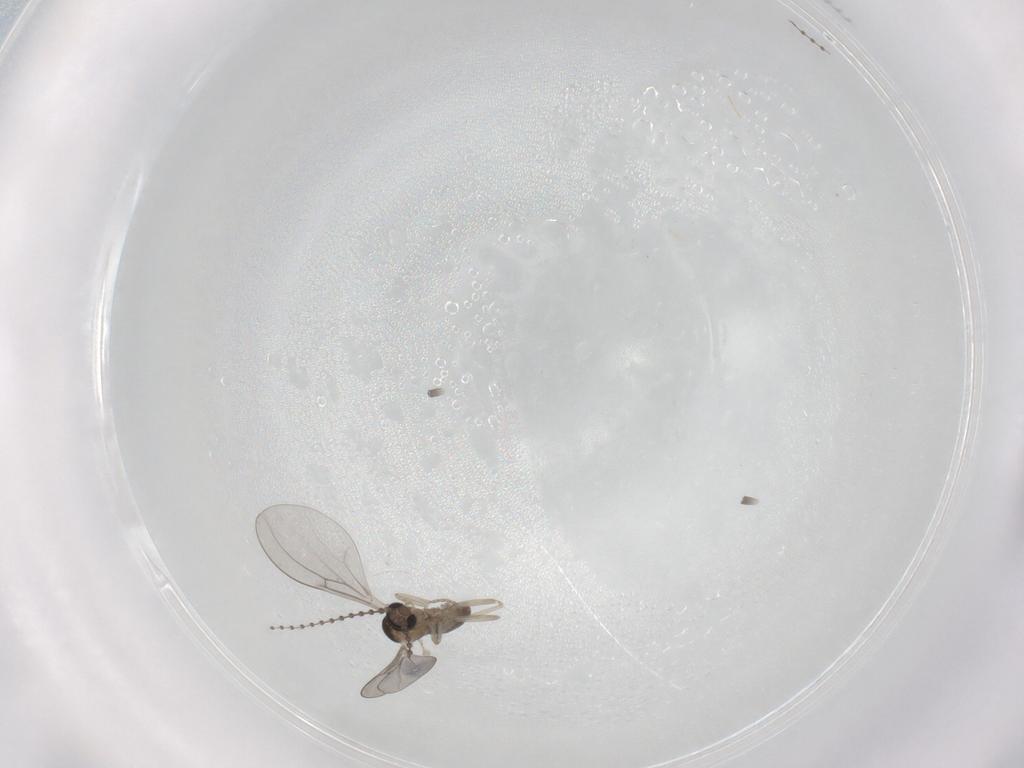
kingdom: Animalia
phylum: Arthropoda
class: Insecta
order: Diptera
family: Cecidomyiidae
